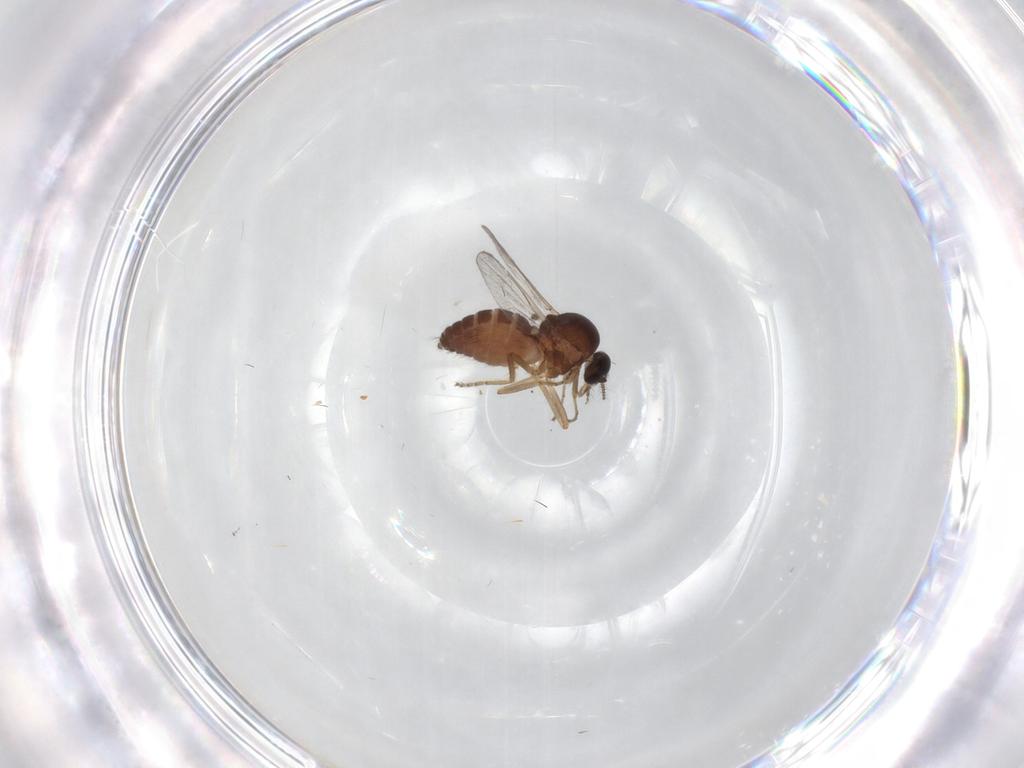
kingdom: Animalia
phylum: Arthropoda
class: Insecta
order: Diptera
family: Ceratopogonidae
